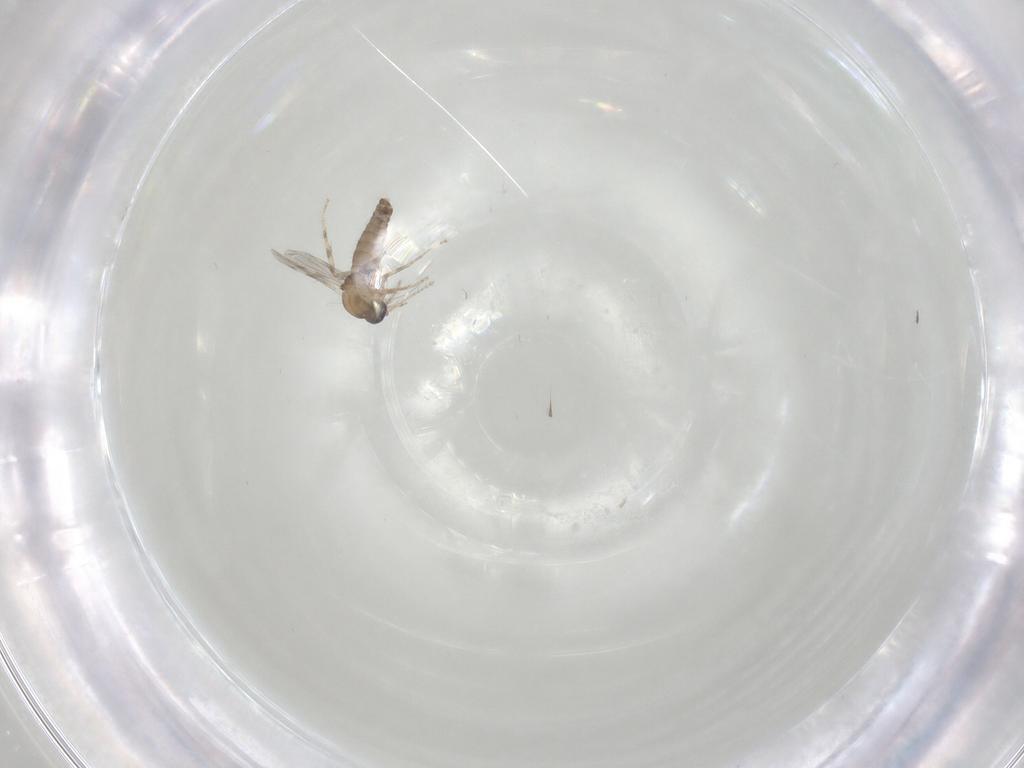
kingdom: Animalia
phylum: Arthropoda
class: Insecta
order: Diptera
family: Ceratopogonidae
